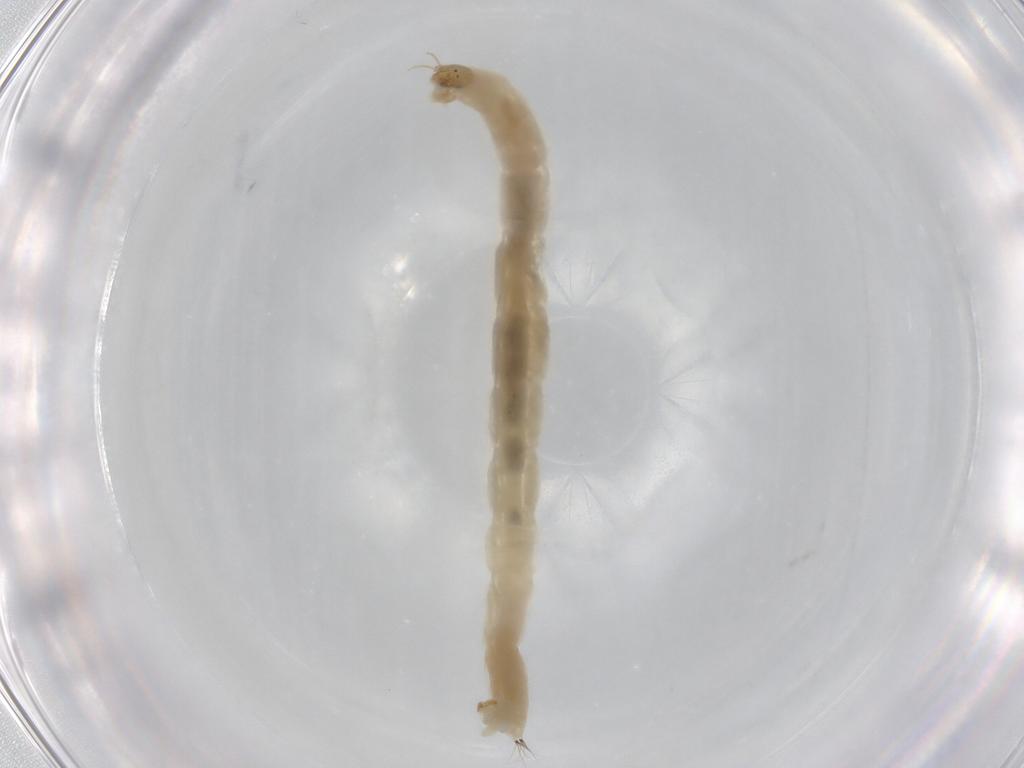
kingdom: Animalia
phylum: Arthropoda
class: Insecta
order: Diptera
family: Chironomidae
